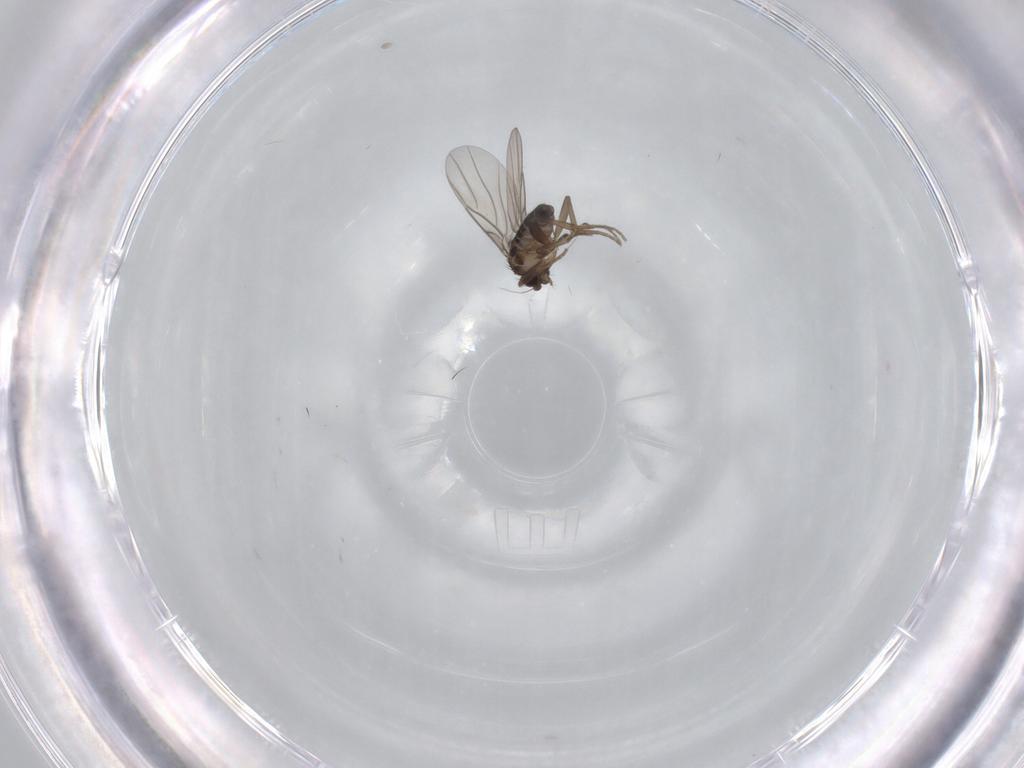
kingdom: Animalia
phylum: Arthropoda
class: Insecta
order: Diptera
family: Phoridae
